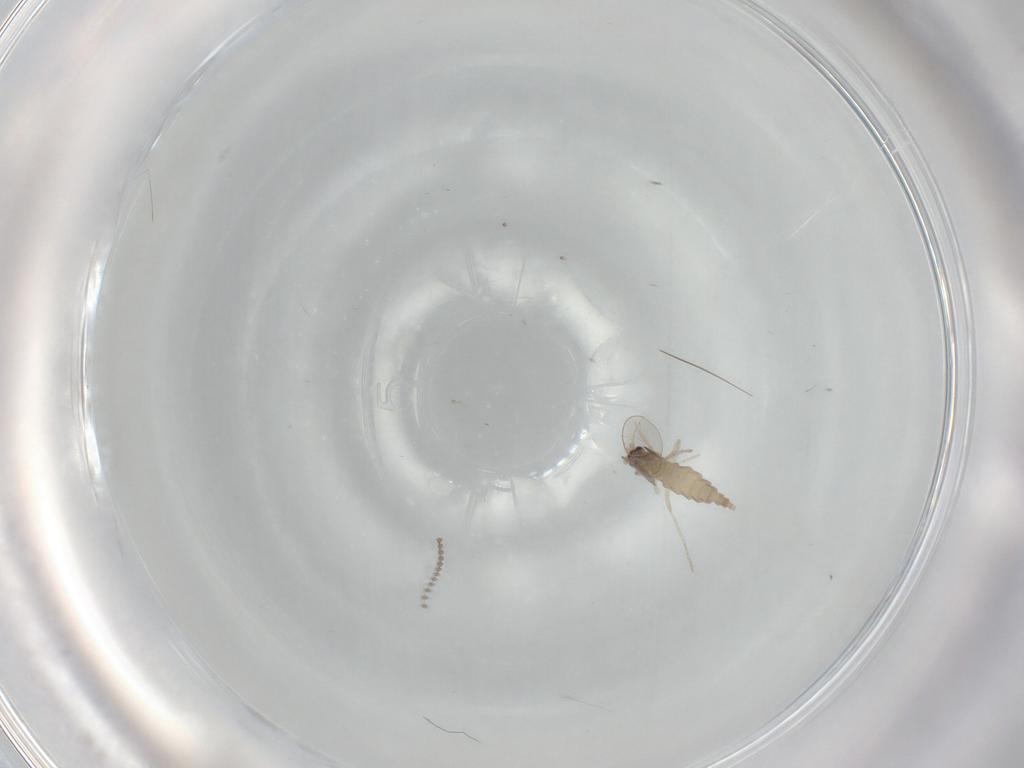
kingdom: Animalia
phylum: Arthropoda
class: Insecta
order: Diptera
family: Cecidomyiidae
